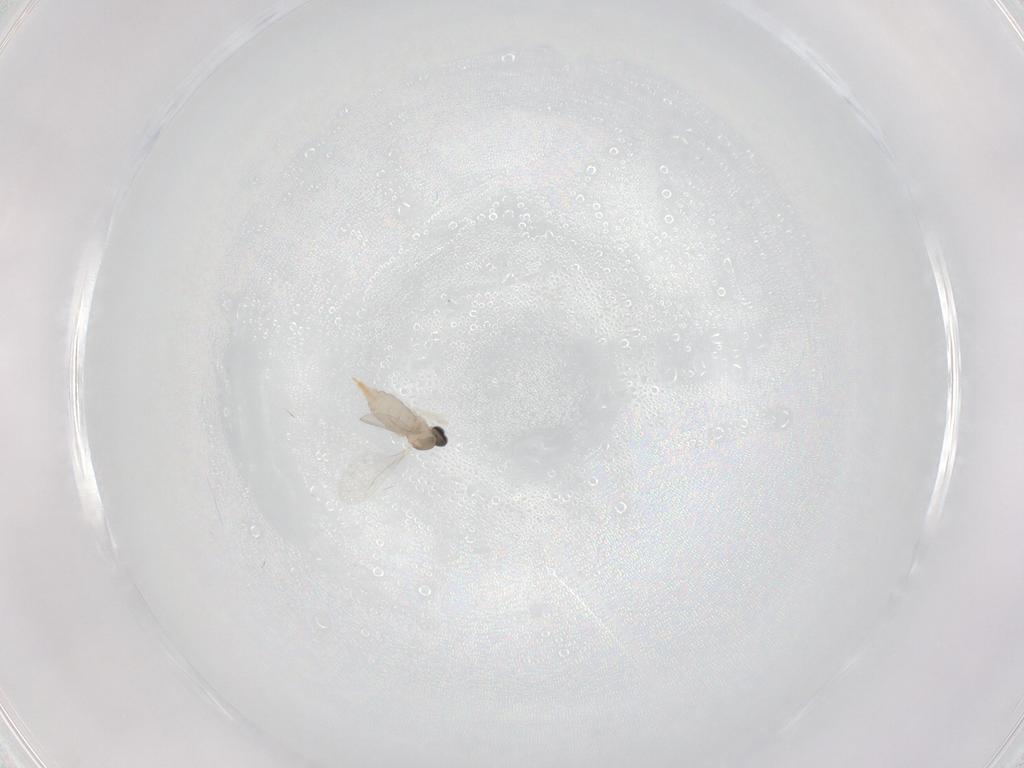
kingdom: Animalia
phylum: Arthropoda
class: Insecta
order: Diptera
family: Cecidomyiidae
